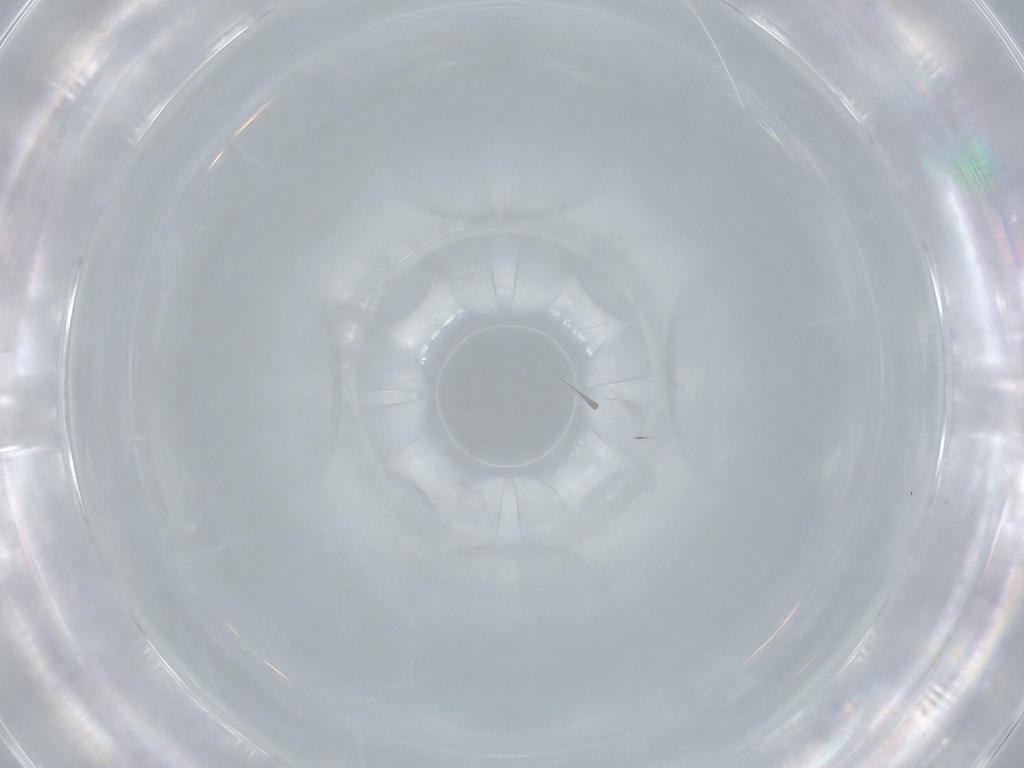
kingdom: Animalia
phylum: Arthropoda
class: Insecta
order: Diptera
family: Cecidomyiidae
